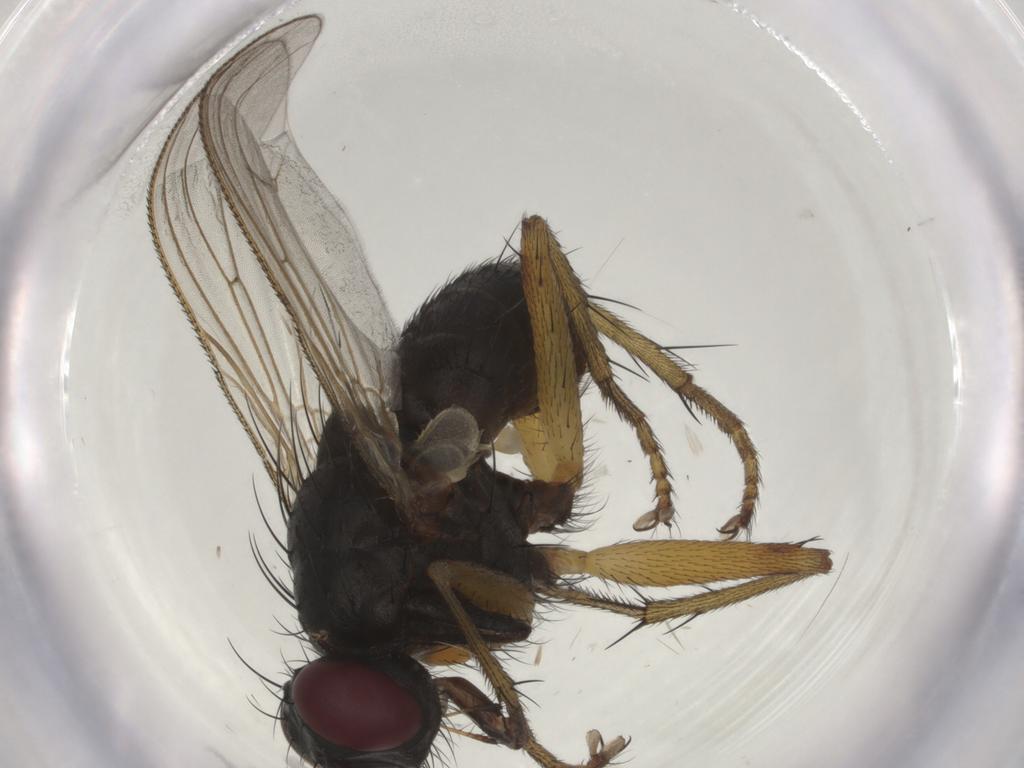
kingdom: Animalia
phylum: Arthropoda
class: Insecta
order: Diptera
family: Muscidae
